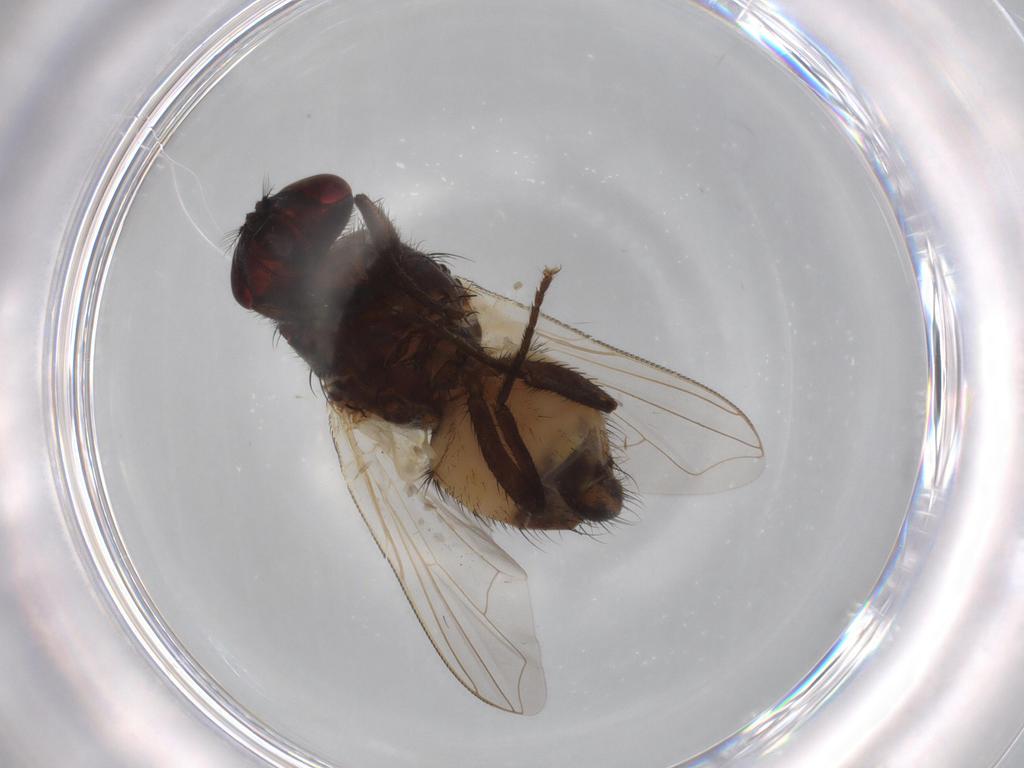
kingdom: Animalia
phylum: Arthropoda
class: Insecta
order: Diptera
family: Muscidae
